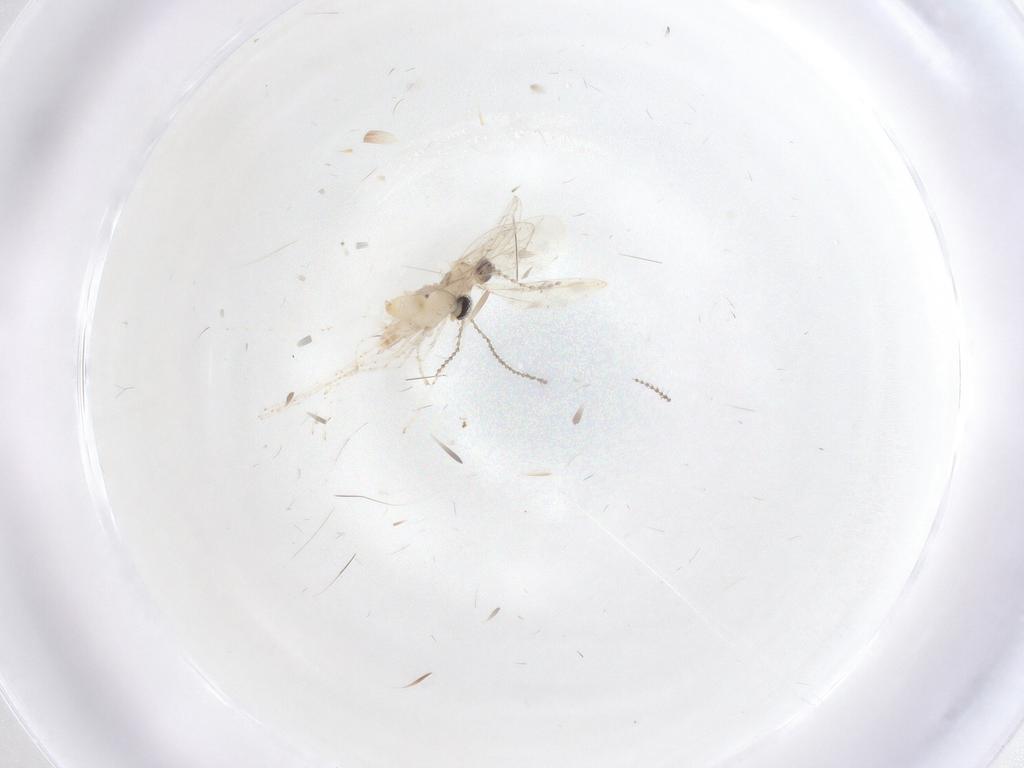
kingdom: Animalia
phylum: Arthropoda
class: Insecta
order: Diptera
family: Cecidomyiidae
